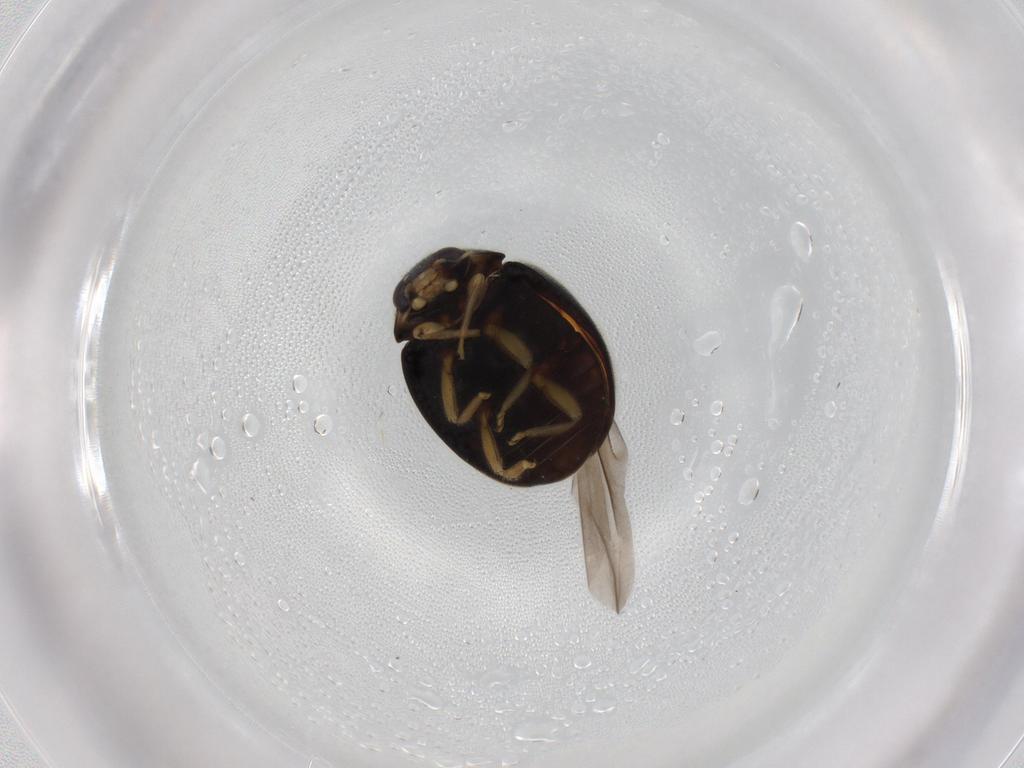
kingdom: Animalia
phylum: Arthropoda
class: Insecta
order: Coleoptera
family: Coccinellidae
